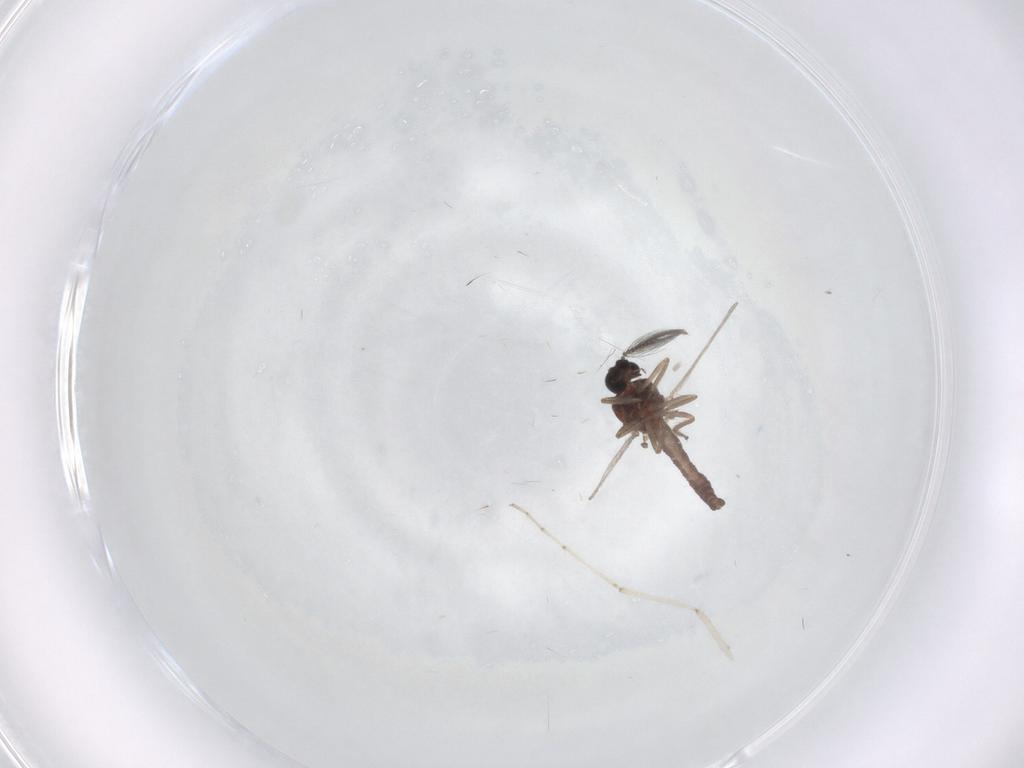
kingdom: Animalia
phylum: Arthropoda
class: Insecta
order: Diptera
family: Ceratopogonidae
